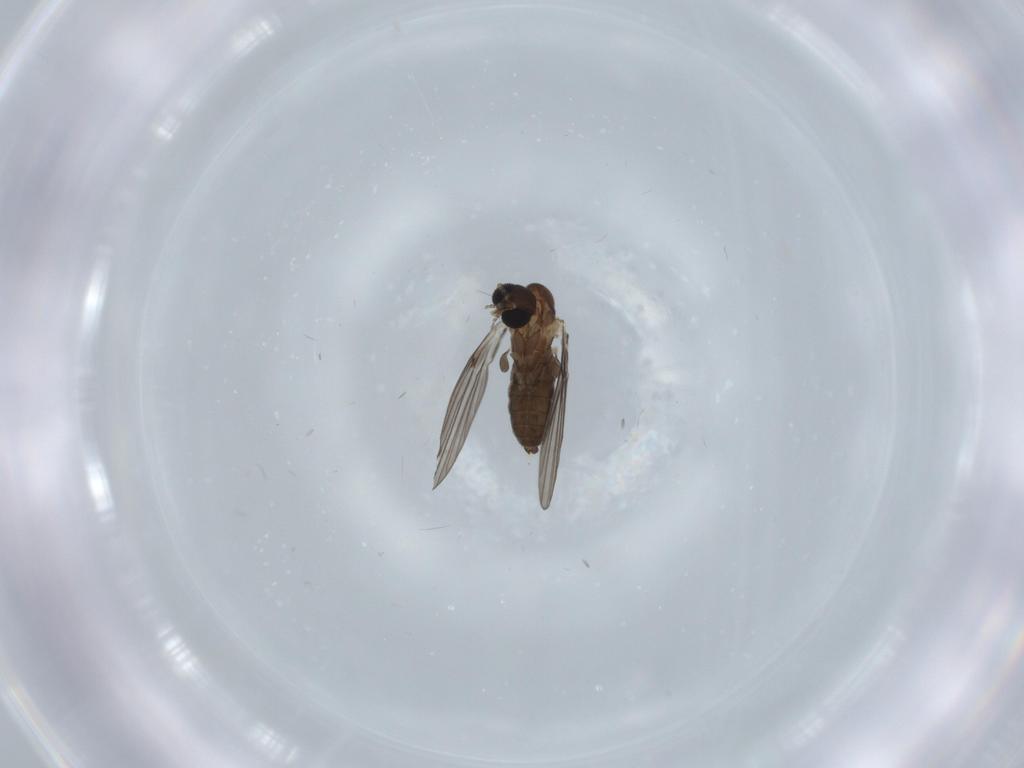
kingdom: Animalia
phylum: Arthropoda
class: Insecta
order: Diptera
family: Psychodidae
